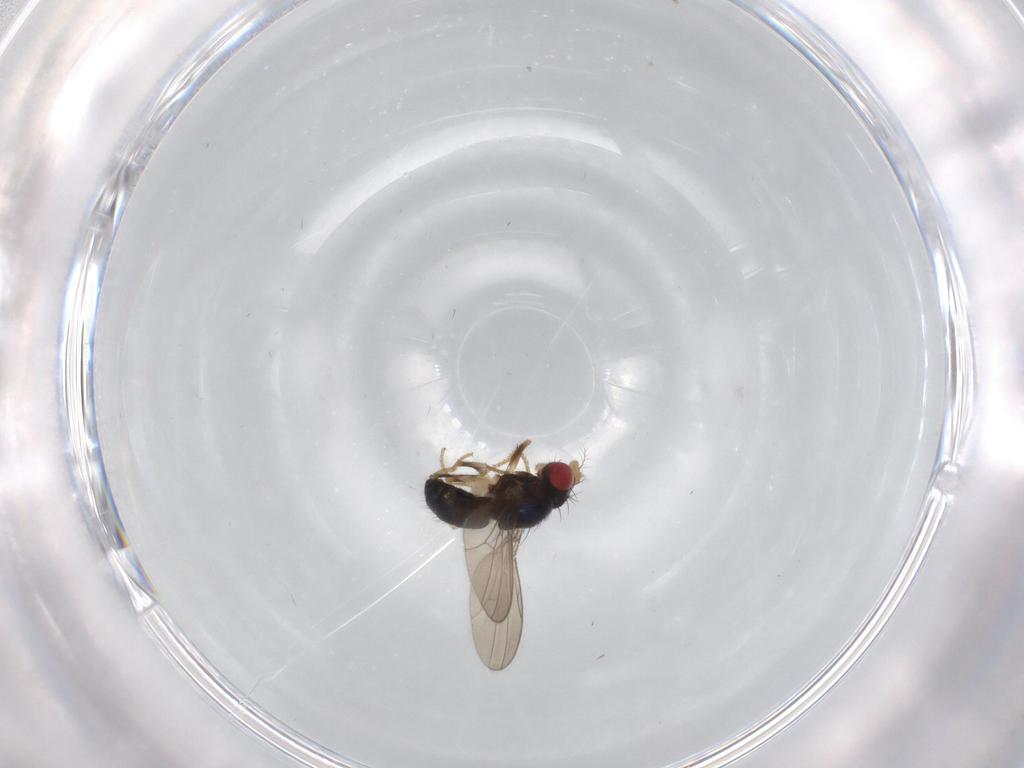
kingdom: Animalia
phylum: Arthropoda
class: Insecta
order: Diptera
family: Drosophilidae
